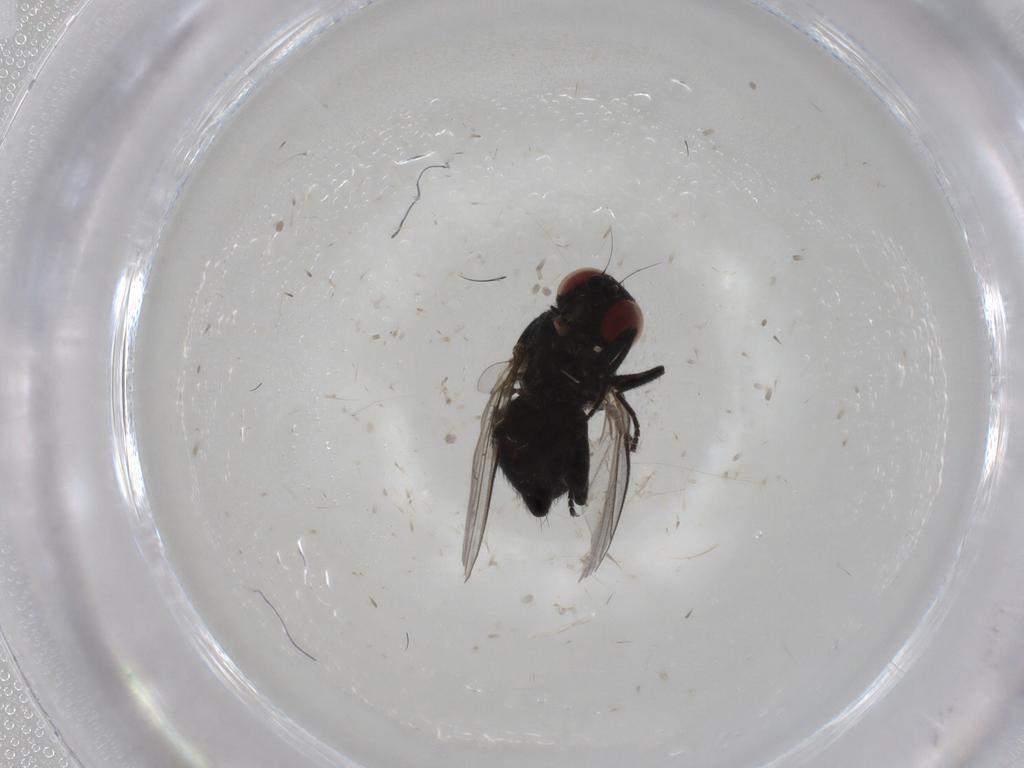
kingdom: Animalia
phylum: Arthropoda
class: Insecta
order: Diptera
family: Agromyzidae
